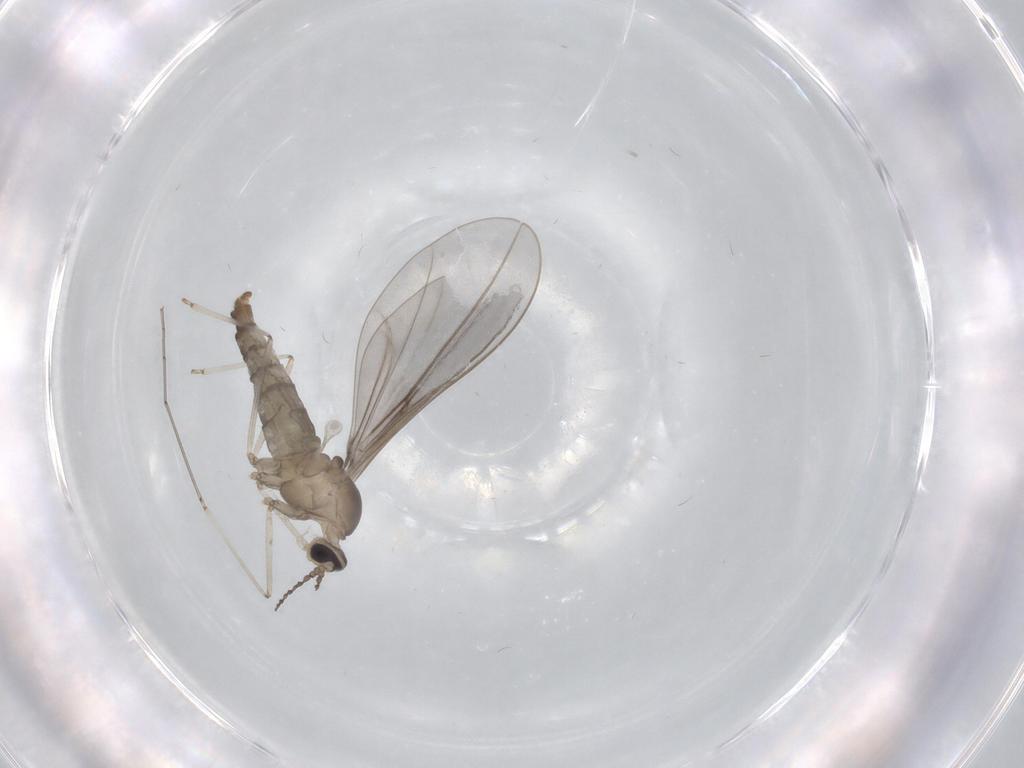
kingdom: Animalia
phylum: Arthropoda
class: Insecta
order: Diptera
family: Cecidomyiidae
